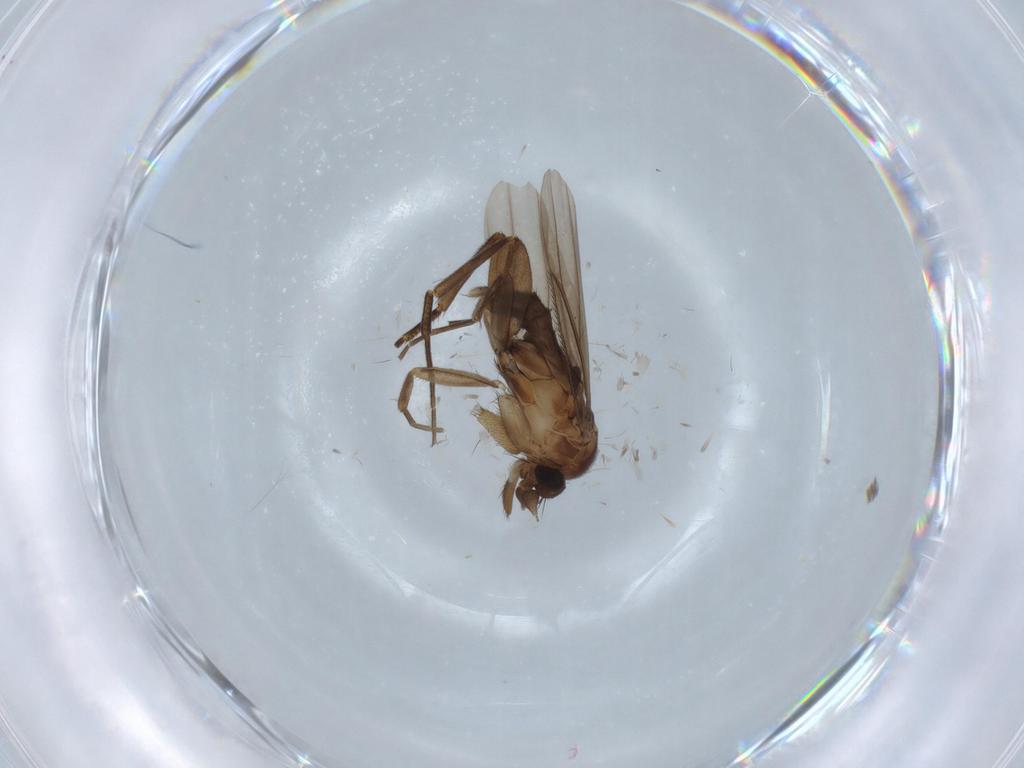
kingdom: Animalia
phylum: Arthropoda
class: Insecta
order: Diptera
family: Phoridae
